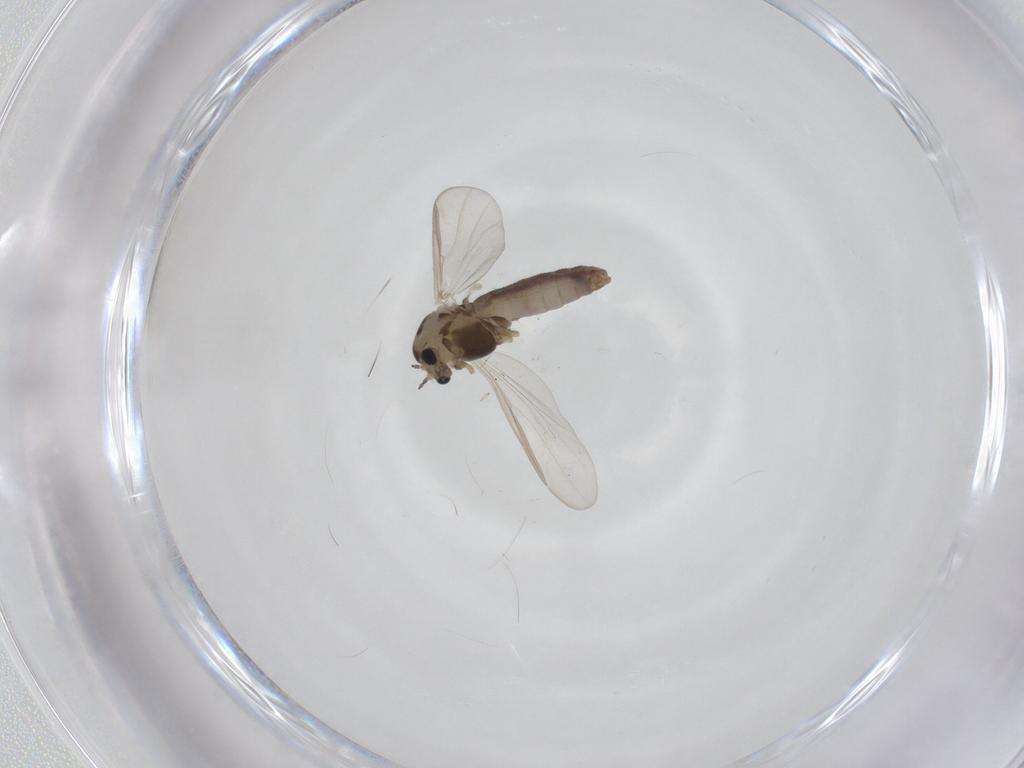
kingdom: Animalia
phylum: Arthropoda
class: Insecta
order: Diptera
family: Chironomidae
